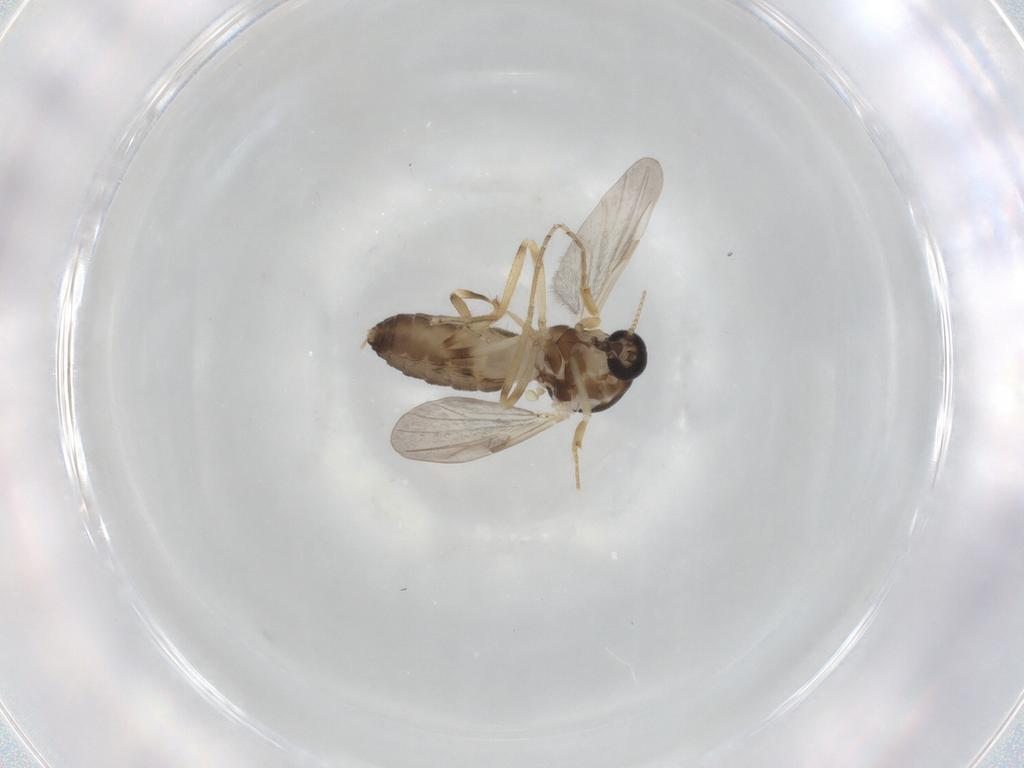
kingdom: Animalia
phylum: Arthropoda
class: Insecta
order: Diptera
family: Ceratopogonidae
